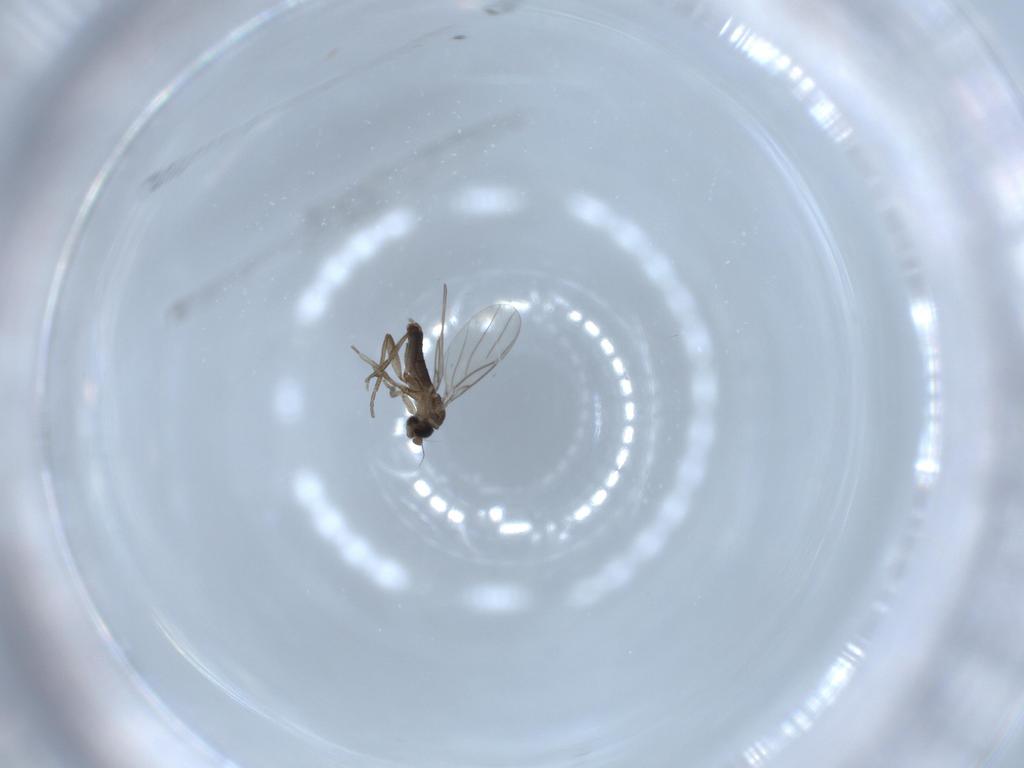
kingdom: Animalia
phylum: Arthropoda
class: Insecta
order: Diptera
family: Phoridae
